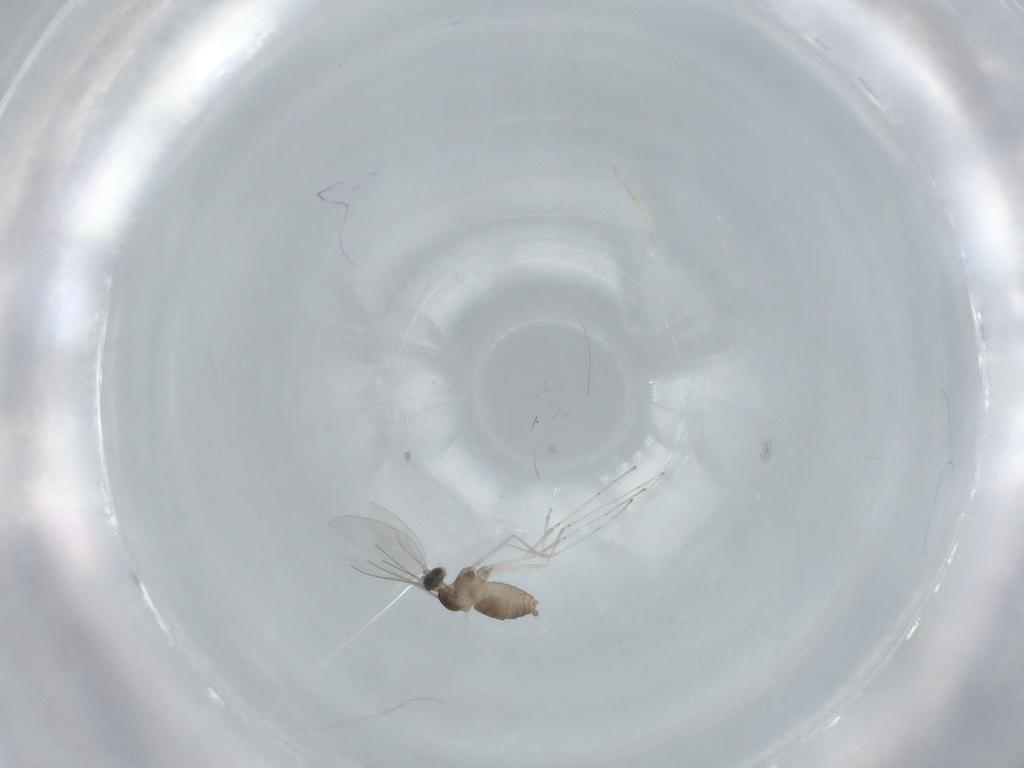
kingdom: Animalia
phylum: Arthropoda
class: Insecta
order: Diptera
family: Cecidomyiidae
